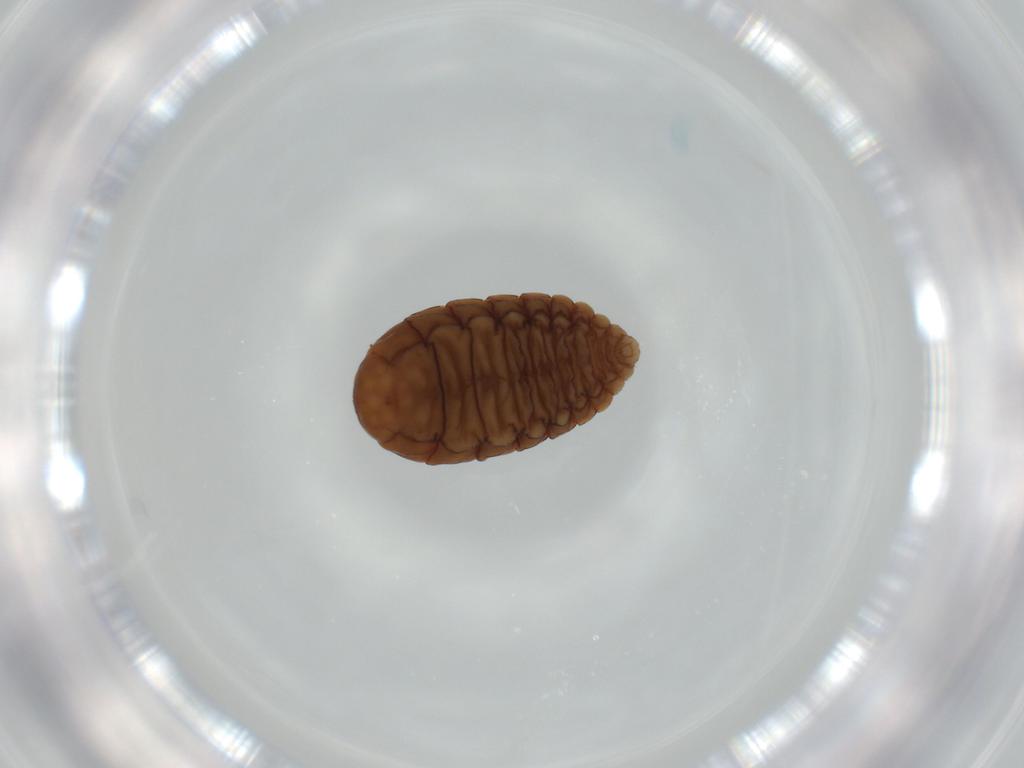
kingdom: Animalia
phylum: Arthropoda
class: Insecta
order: Diptera
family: Phoridae
